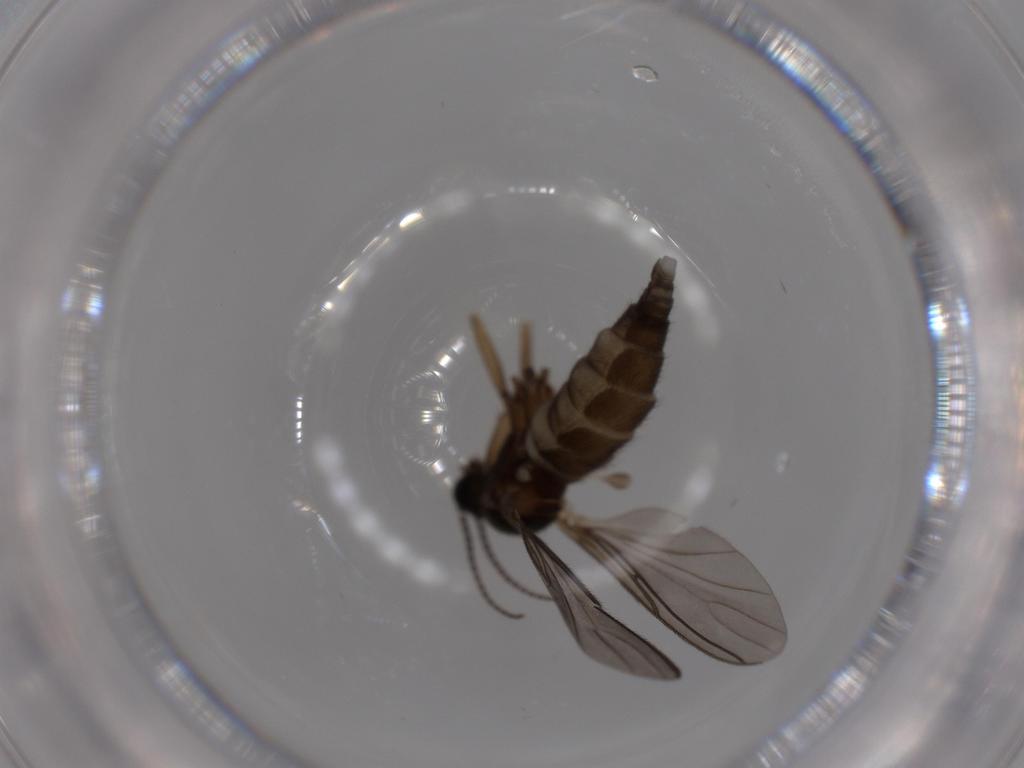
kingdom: Animalia
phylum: Arthropoda
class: Insecta
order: Diptera
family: Sciaridae
